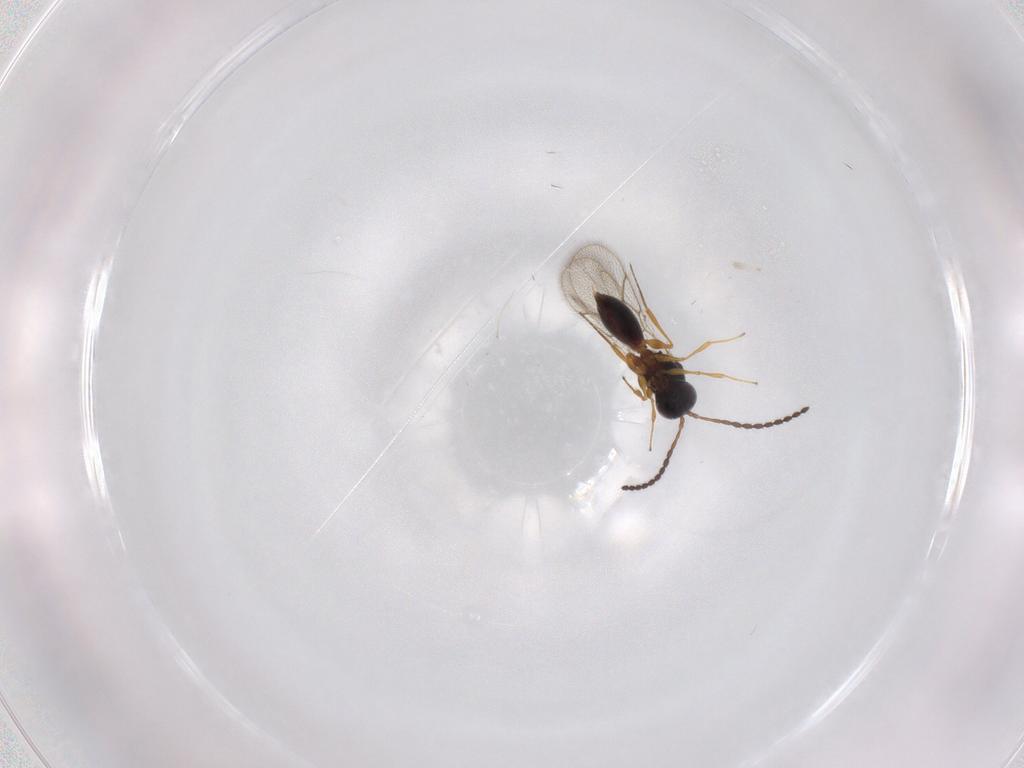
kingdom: Animalia
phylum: Arthropoda
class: Insecta
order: Hymenoptera
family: Figitidae
